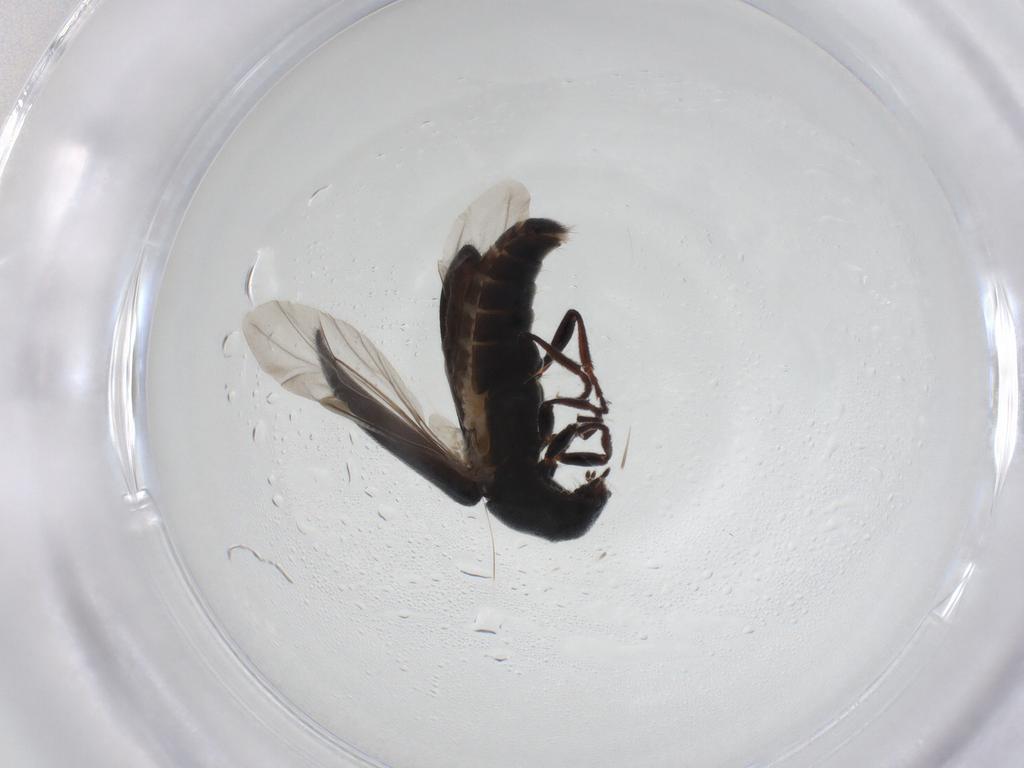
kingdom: Animalia
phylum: Arthropoda
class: Insecta
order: Coleoptera
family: Melyridae
